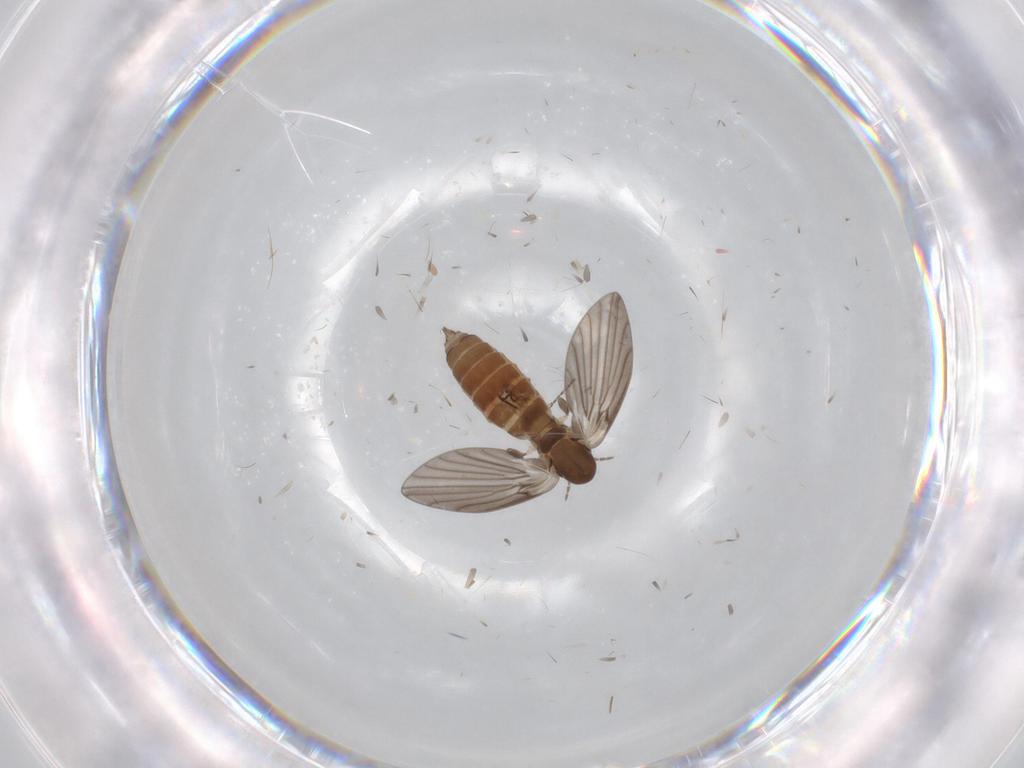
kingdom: Animalia
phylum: Arthropoda
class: Insecta
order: Diptera
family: Psychodidae
